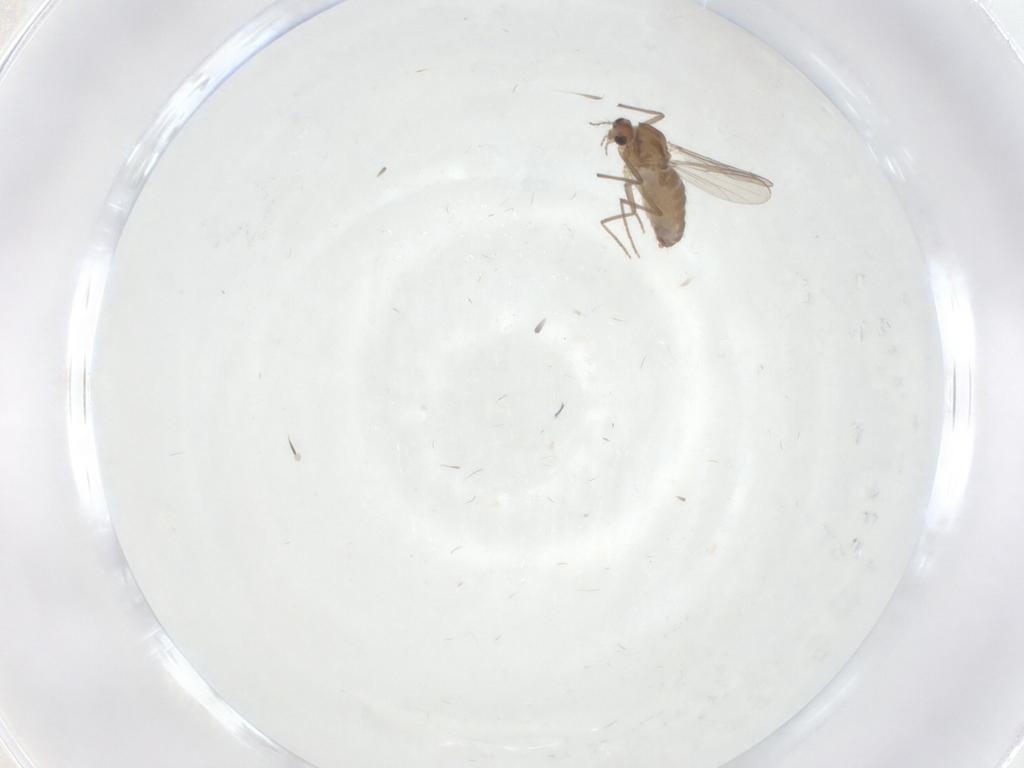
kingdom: Animalia
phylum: Arthropoda
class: Insecta
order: Diptera
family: Chironomidae
